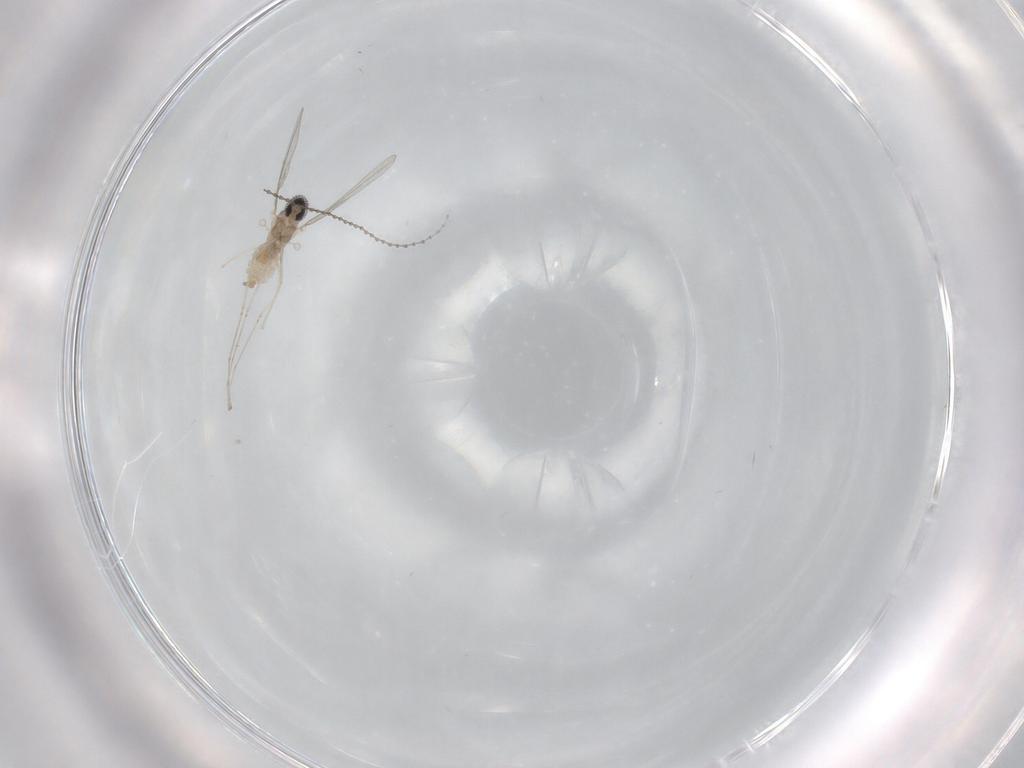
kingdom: Animalia
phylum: Arthropoda
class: Insecta
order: Diptera
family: Cecidomyiidae
